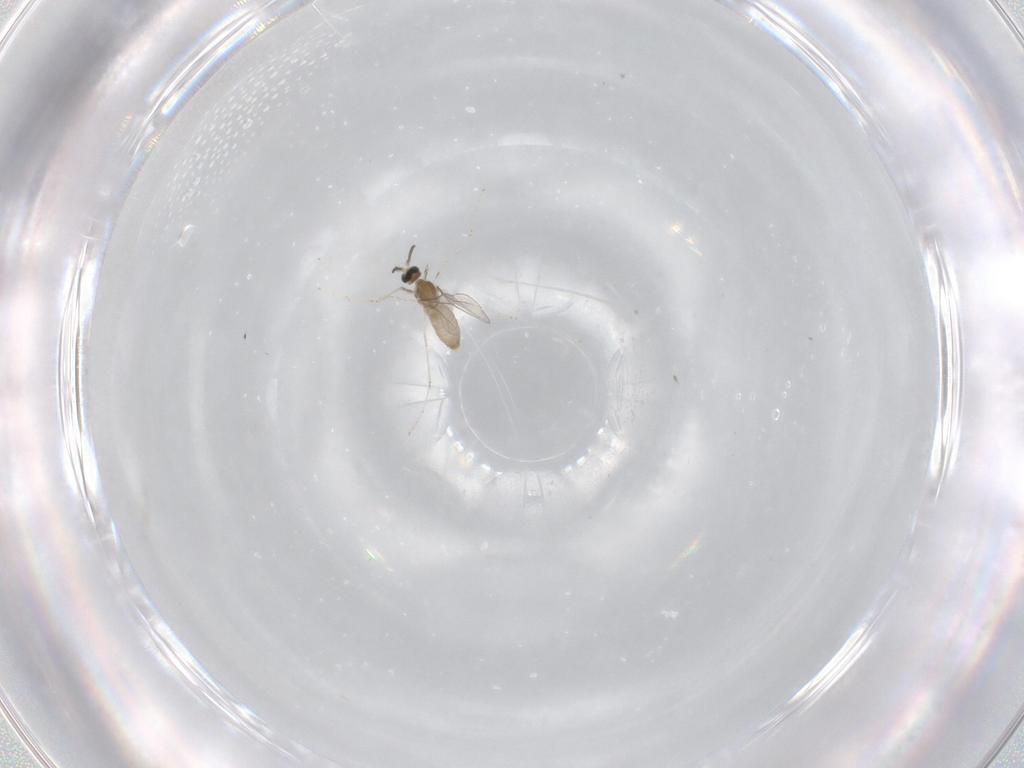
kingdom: Animalia
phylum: Arthropoda
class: Insecta
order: Diptera
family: Cecidomyiidae
